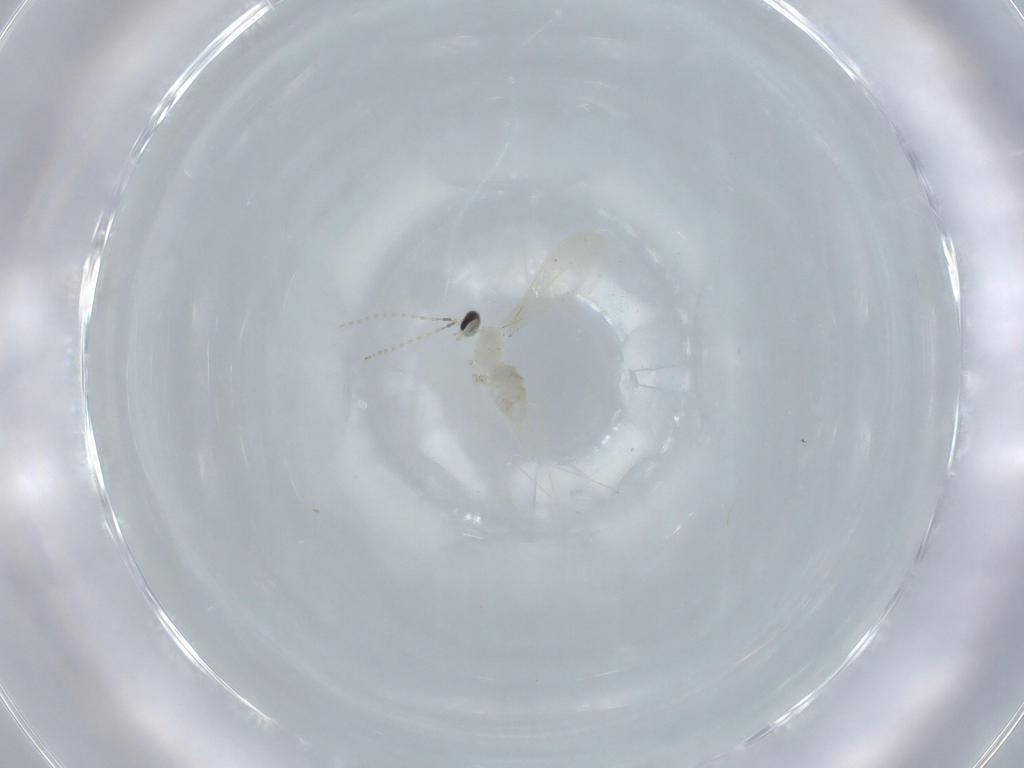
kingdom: Animalia
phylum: Arthropoda
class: Insecta
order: Diptera
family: Cecidomyiidae
